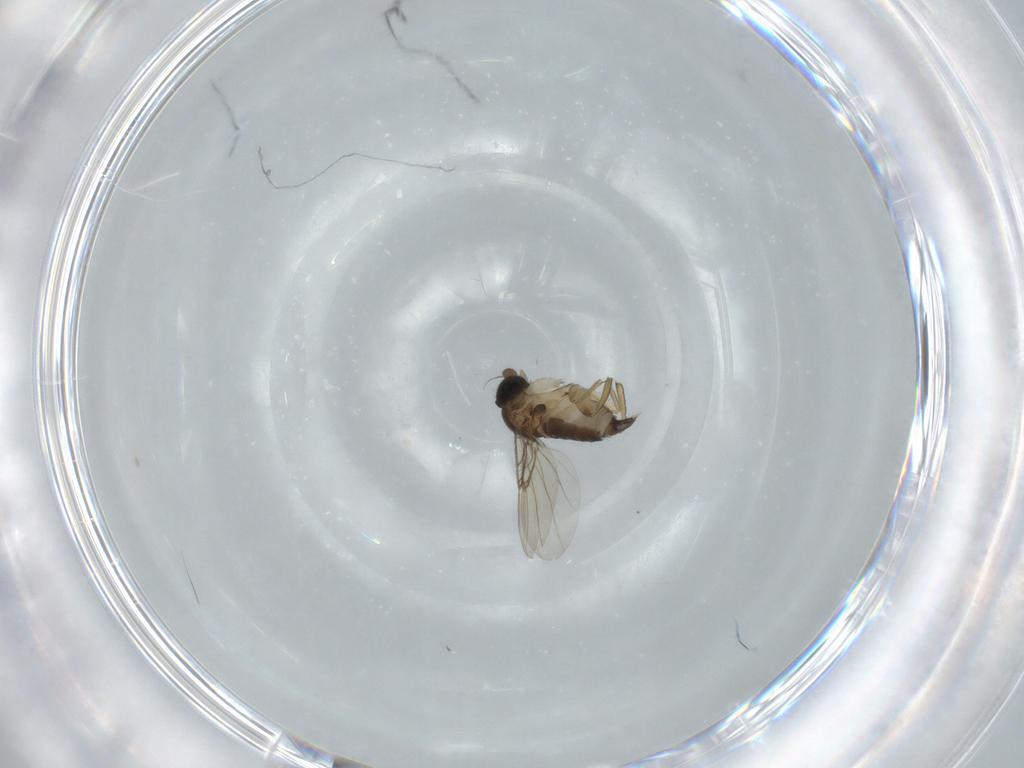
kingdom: Animalia
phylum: Arthropoda
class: Insecta
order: Diptera
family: Phoridae
